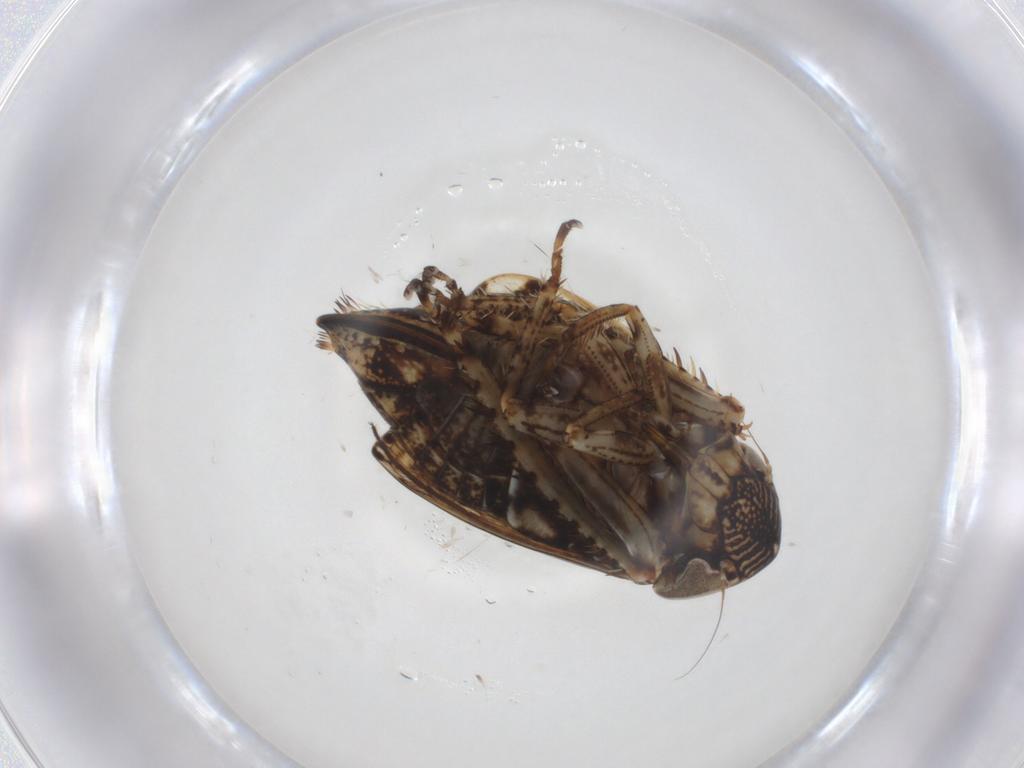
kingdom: Animalia
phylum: Arthropoda
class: Insecta
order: Hemiptera
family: Cicadellidae
